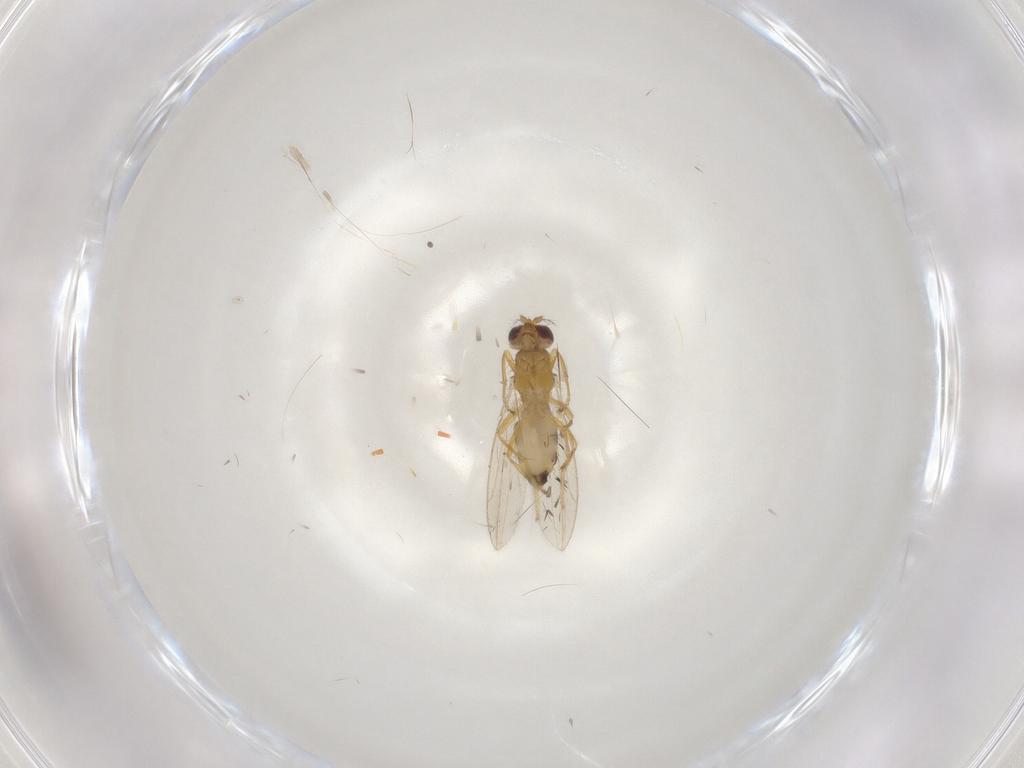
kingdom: Animalia
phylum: Arthropoda
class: Insecta
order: Diptera
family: Periscelididae
